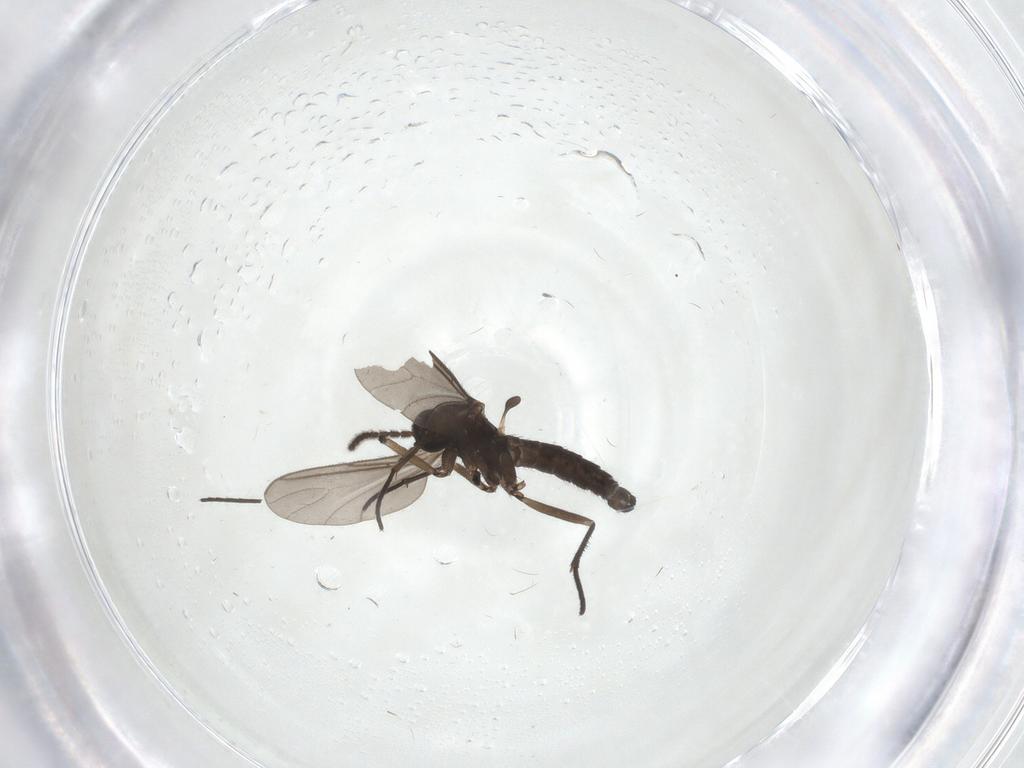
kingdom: Animalia
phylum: Arthropoda
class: Insecta
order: Diptera
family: Sciaridae
